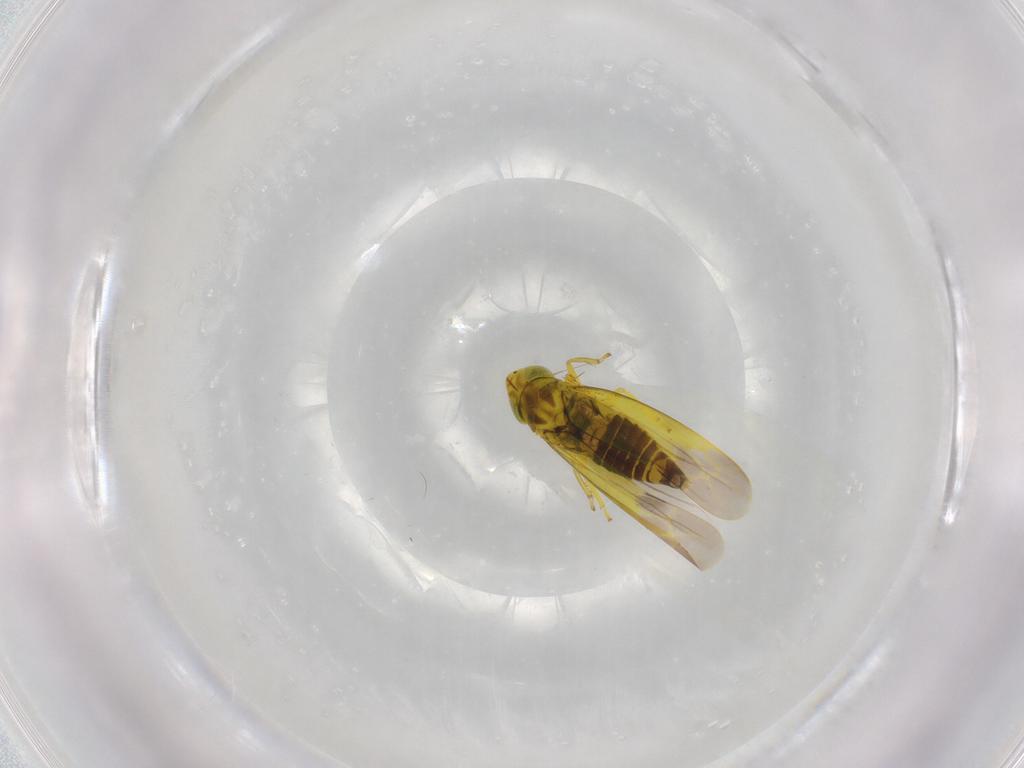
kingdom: Animalia
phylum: Arthropoda
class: Insecta
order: Hemiptera
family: Cicadellidae
